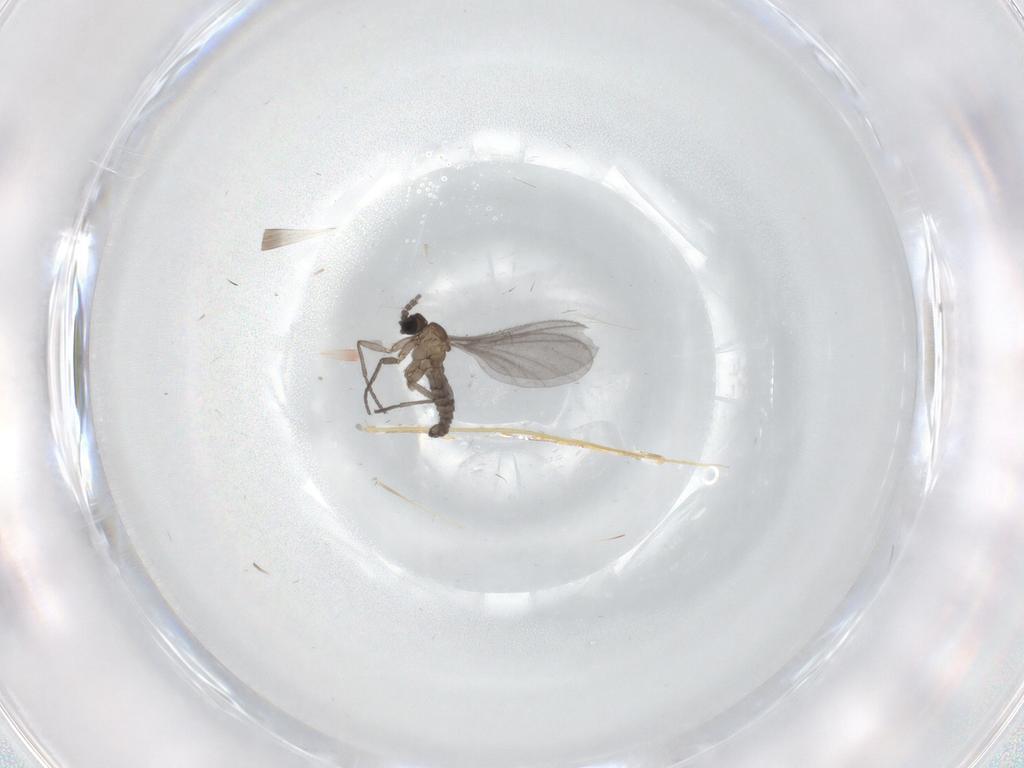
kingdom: Animalia
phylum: Arthropoda
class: Insecta
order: Diptera
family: Sciaridae
